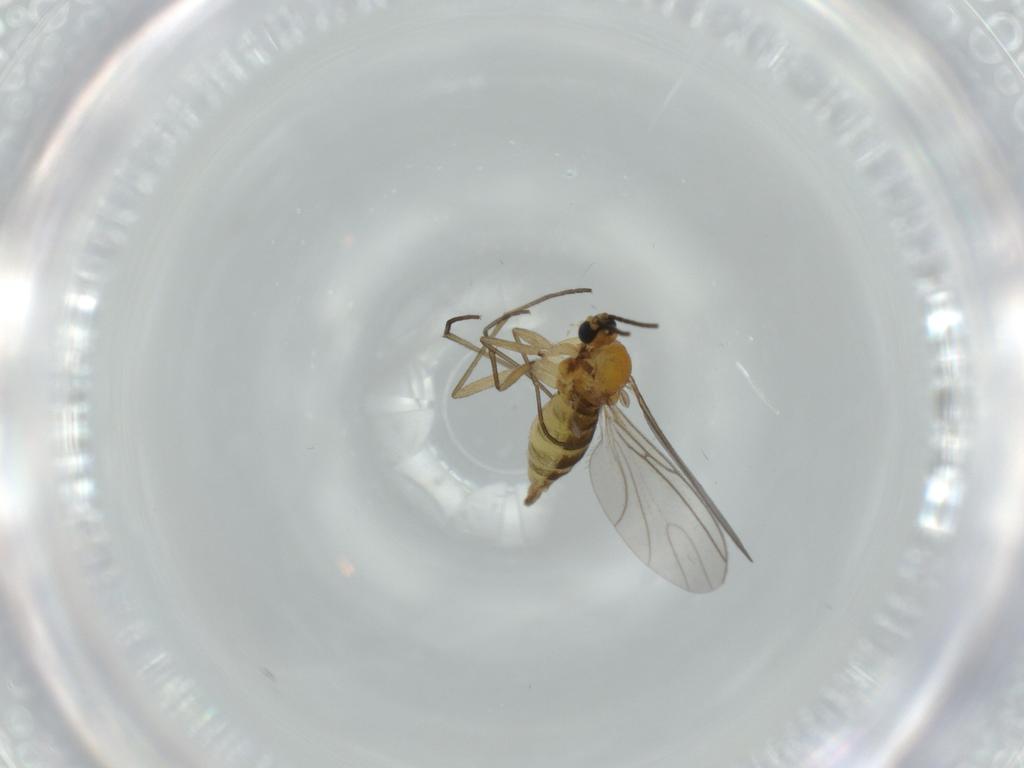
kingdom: Animalia
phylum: Arthropoda
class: Insecta
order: Diptera
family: Sciaridae
